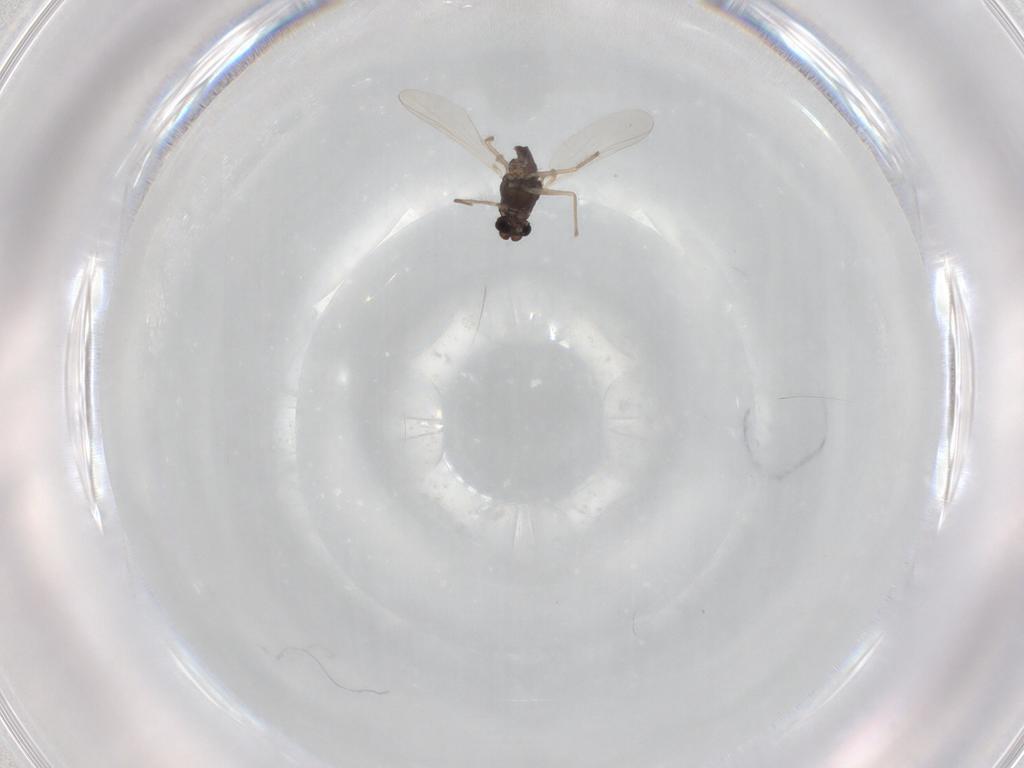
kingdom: Animalia
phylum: Arthropoda
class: Insecta
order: Diptera
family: Chironomidae
